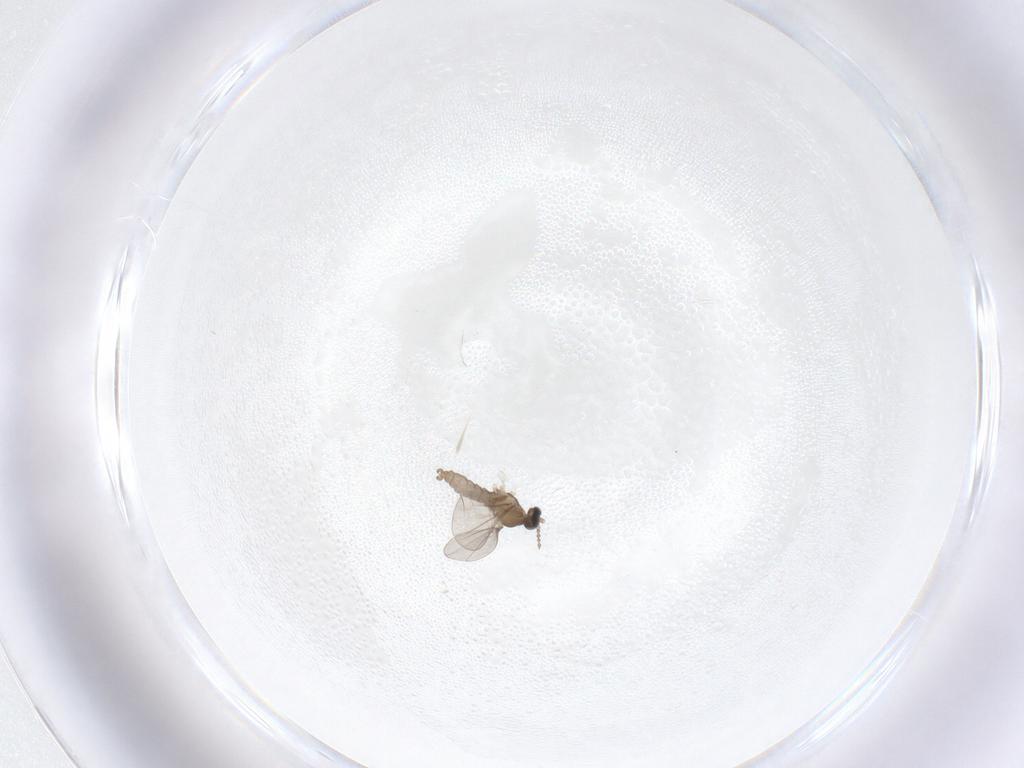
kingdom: Animalia
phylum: Arthropoda
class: Insecta
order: Diptera
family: Cecidomyiidae
